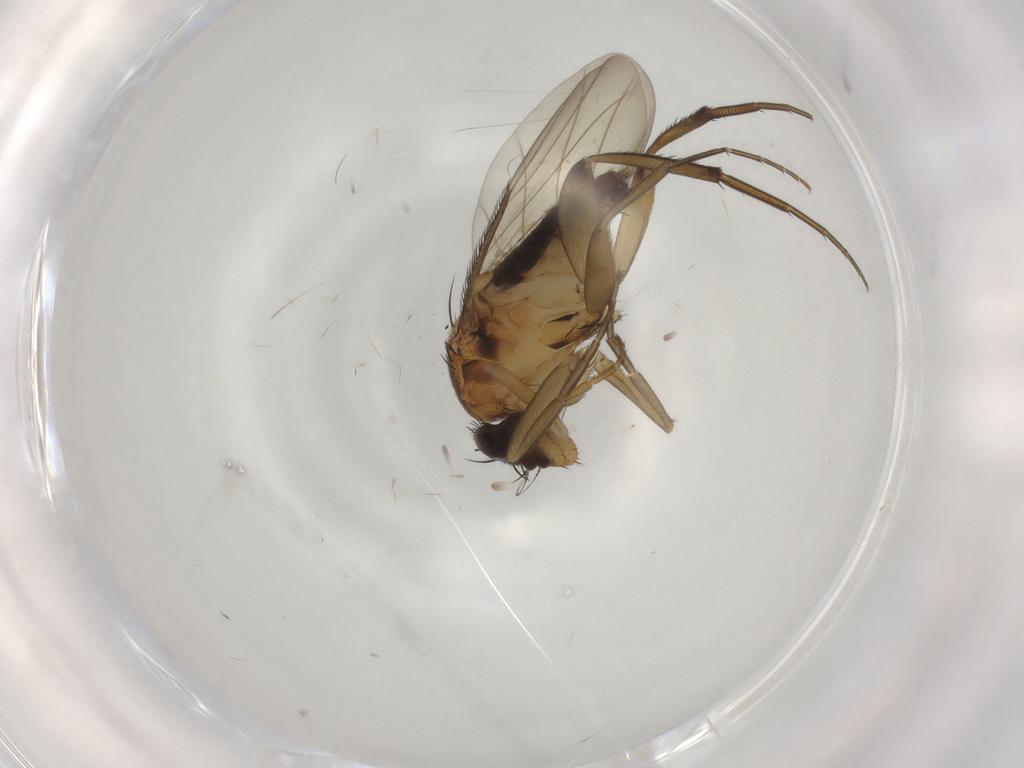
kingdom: Animalia
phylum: Arthropoda
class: Insecta
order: Diptera
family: Phoridae
